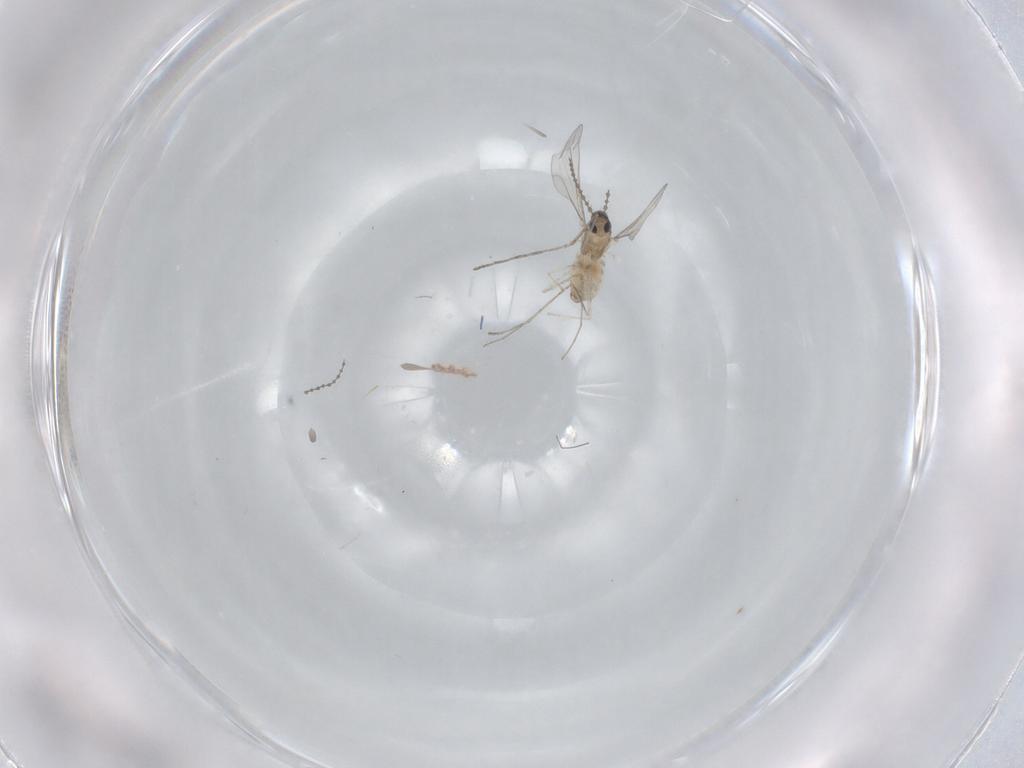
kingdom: Animalia
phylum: Arthropoda
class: Insecta
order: Diptera
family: Cecidomyiidae
